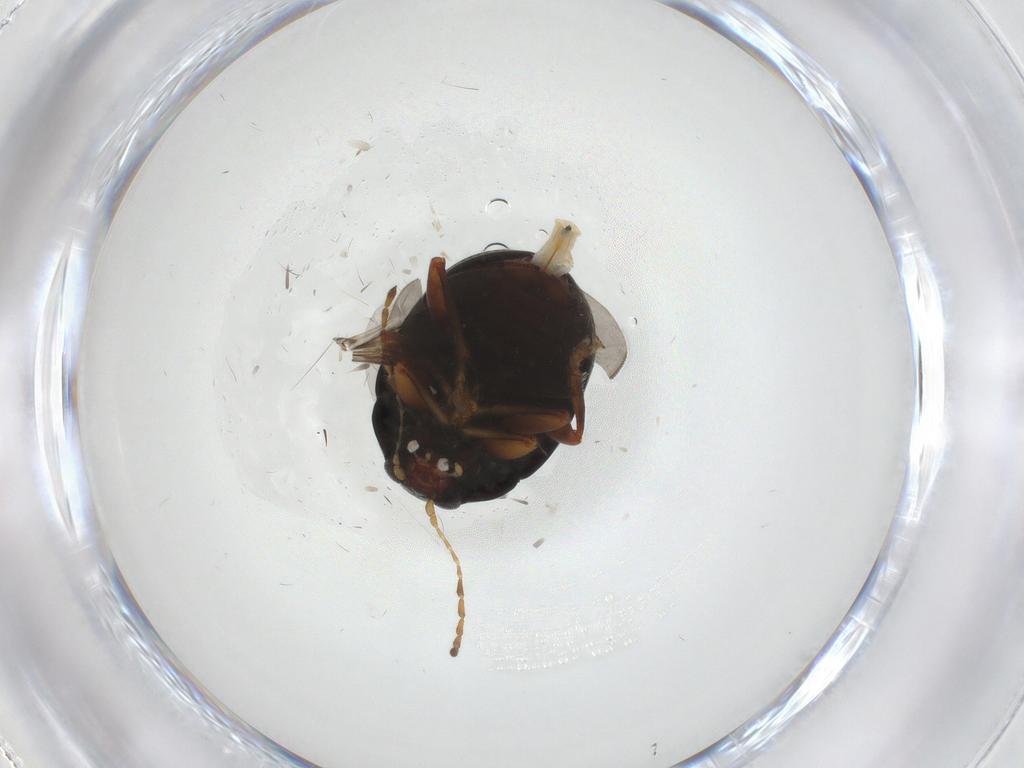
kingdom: Animalia
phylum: Arthropoda
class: Insecta
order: Coleoptera
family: Chrysomelidae
